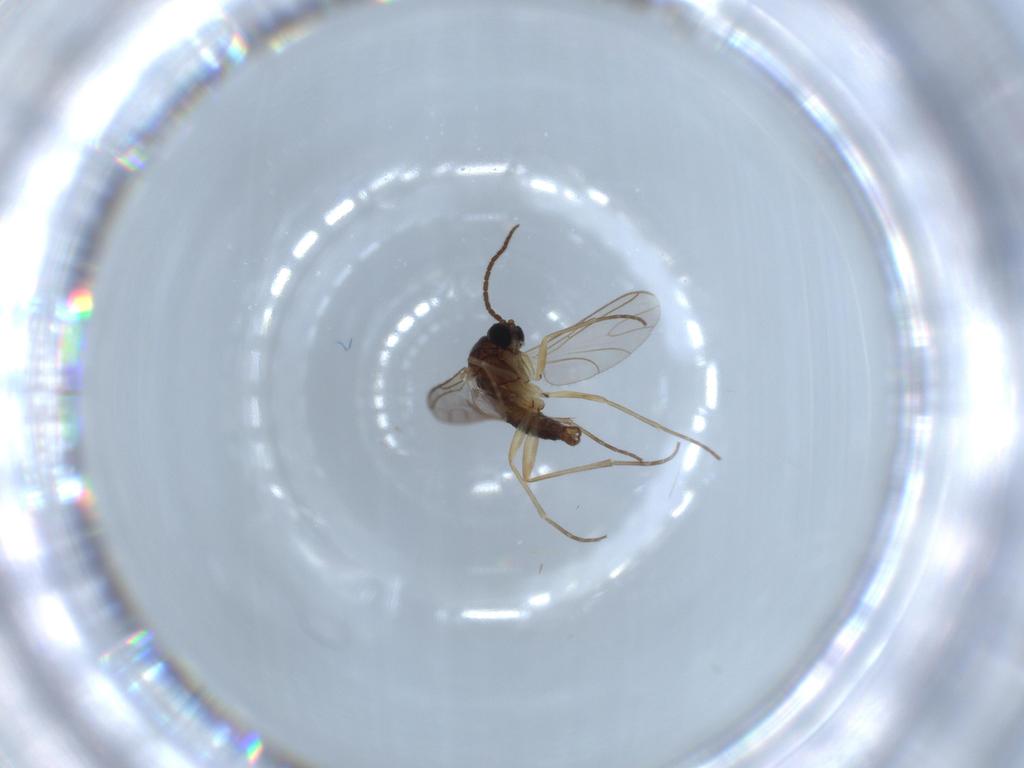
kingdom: Animalia
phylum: Arthropoda
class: Insecta
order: Diptera
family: Sciaridae
